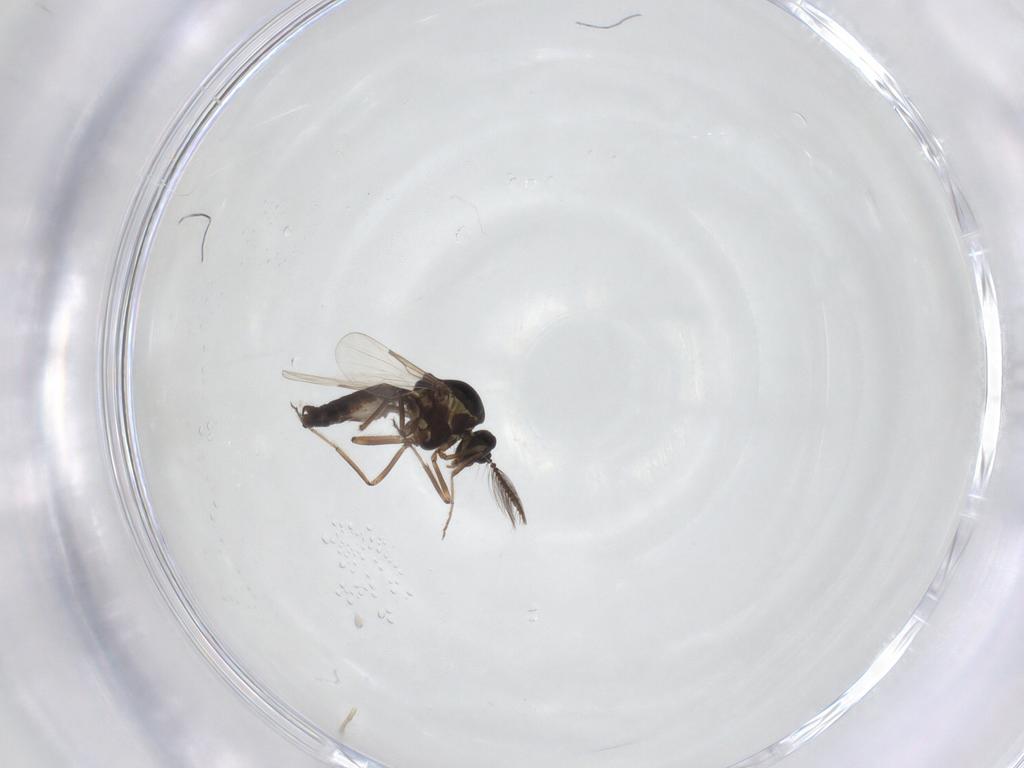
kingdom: Animalia
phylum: Arthropoda
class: Insecta
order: Diptera
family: Ceratopogonidae
